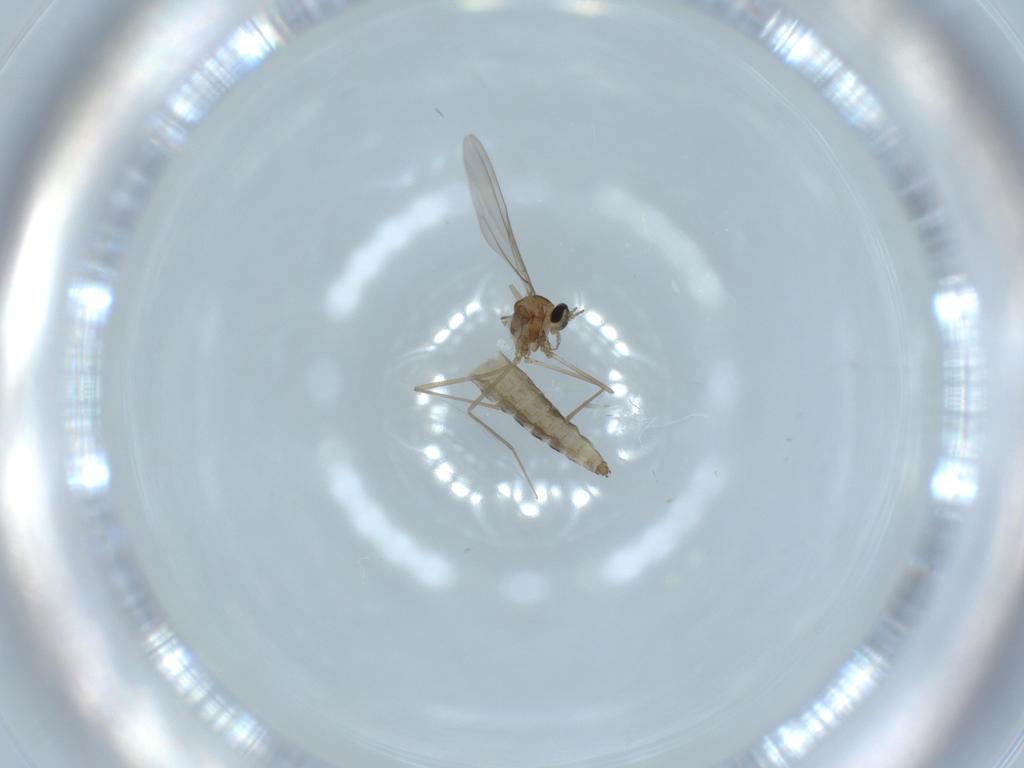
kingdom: Animalia
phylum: Arthropoda
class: Insecta
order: Diptera
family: Cecidomyiidae
